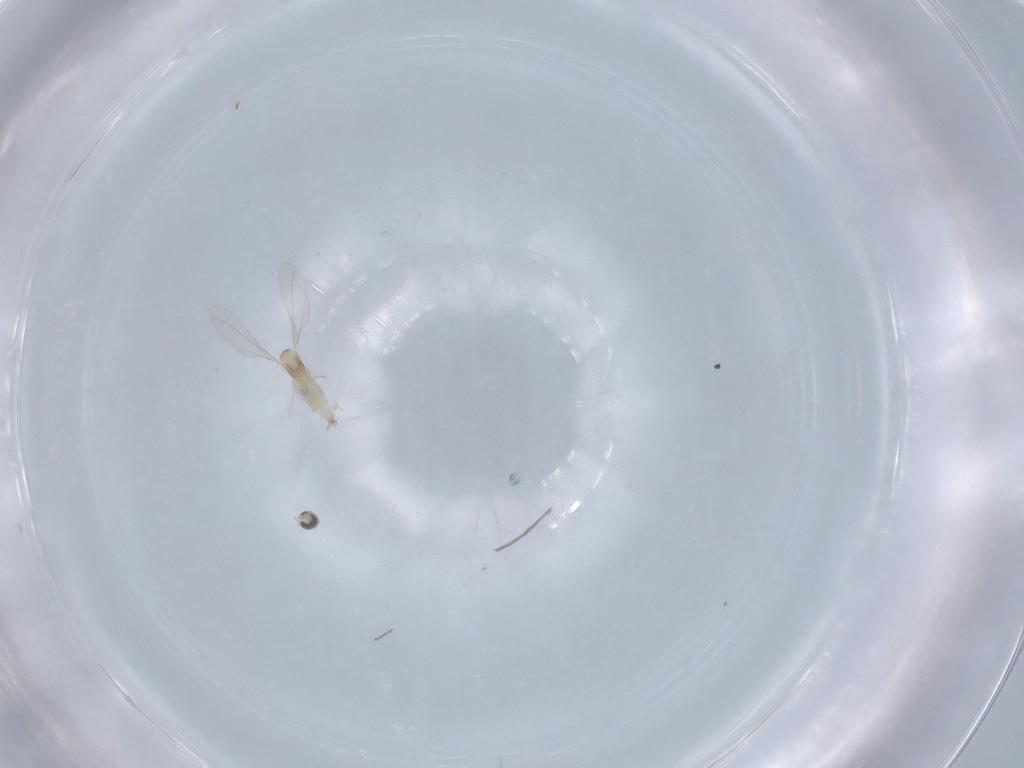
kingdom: Animalia
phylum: Arthropoda
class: Insecta
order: Diptera
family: Cecidomyiidae
